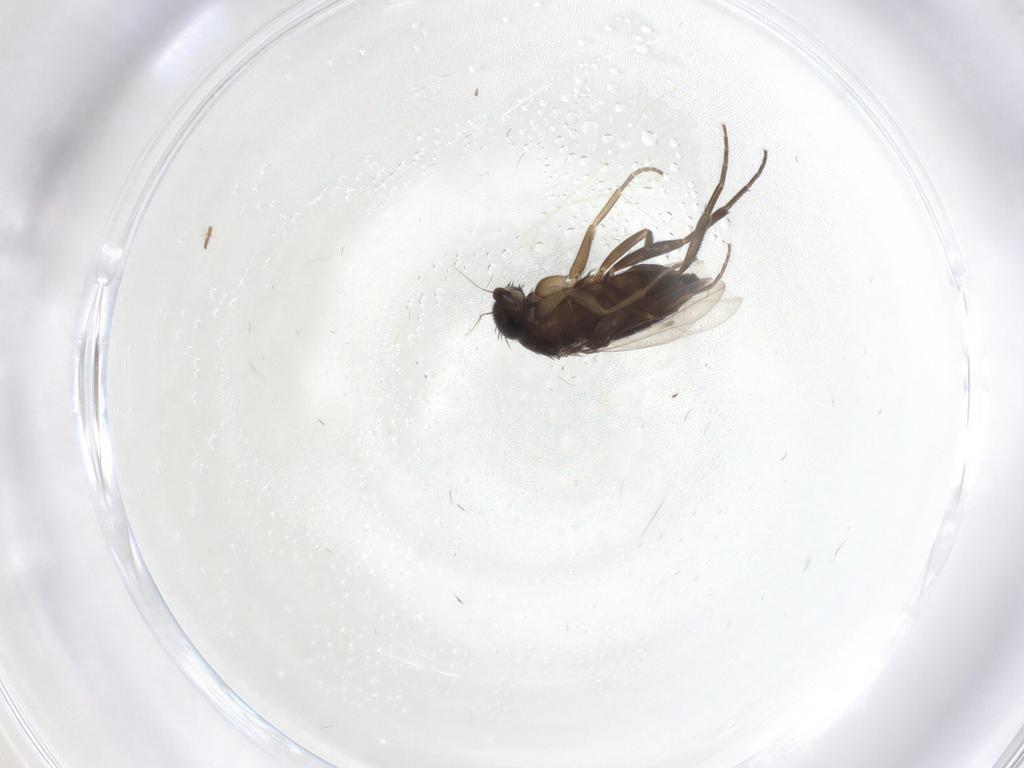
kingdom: Animalia
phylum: Arthropoda
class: Insecta
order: Diptera
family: Phoridae
